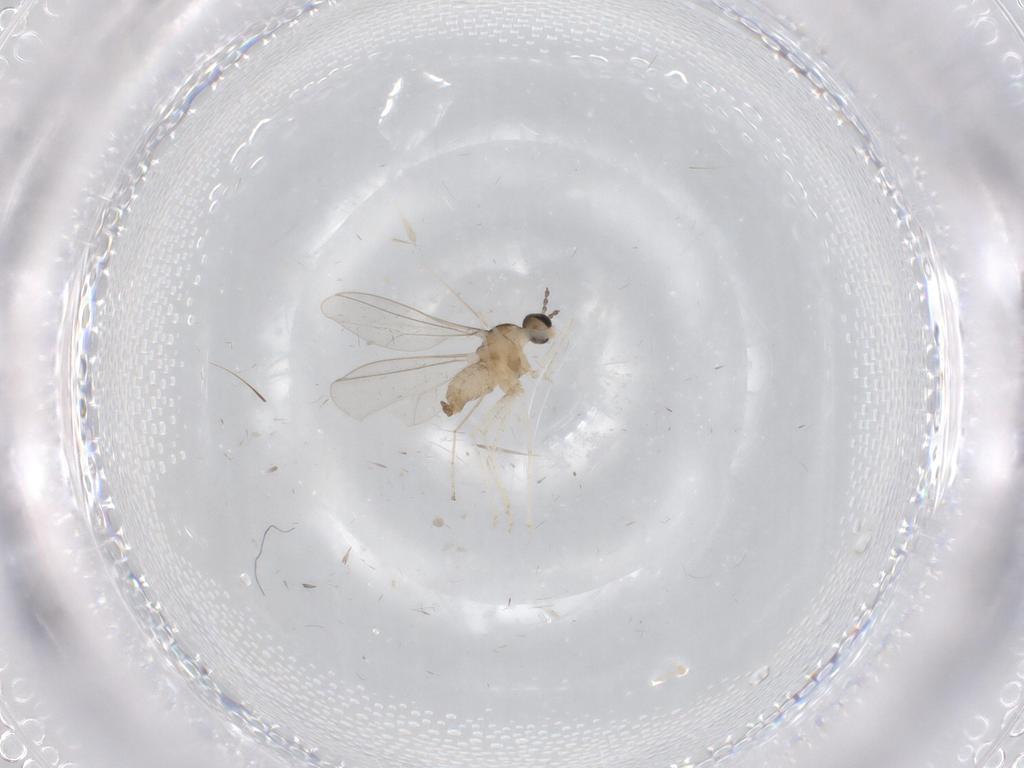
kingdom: Animalia
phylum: Arthropoda
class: Insecta
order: Diptera
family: Cecidomyiidae
